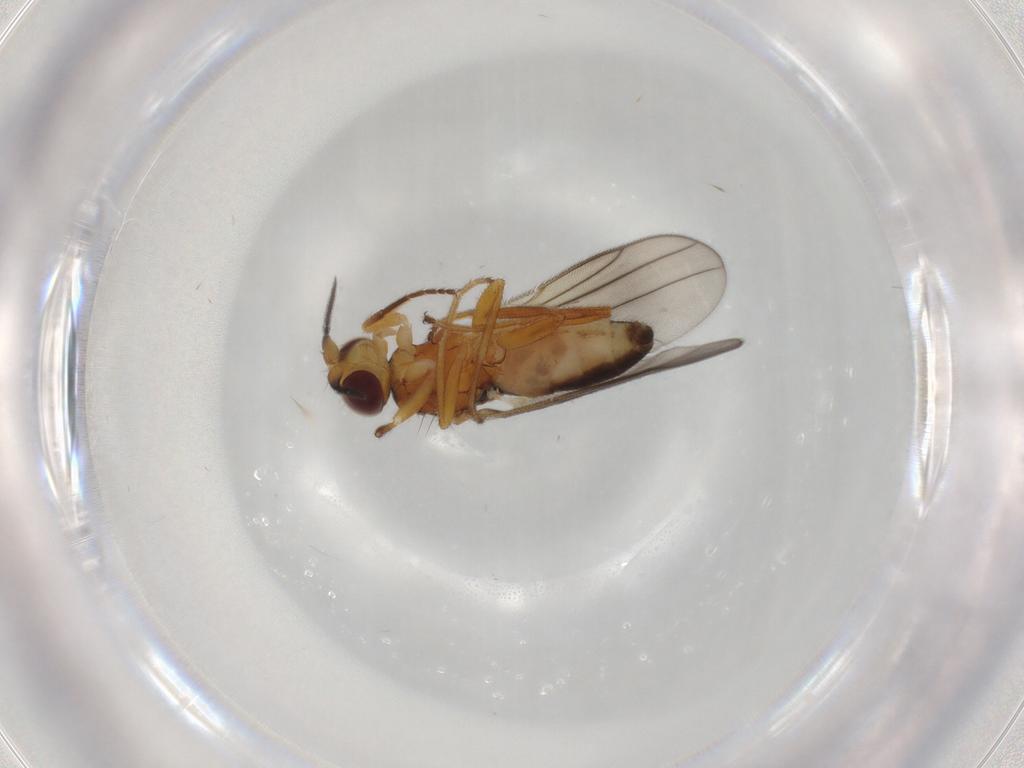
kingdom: Animalia
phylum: Arthropoda
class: Insecta
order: Diptera
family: Chloropidae
